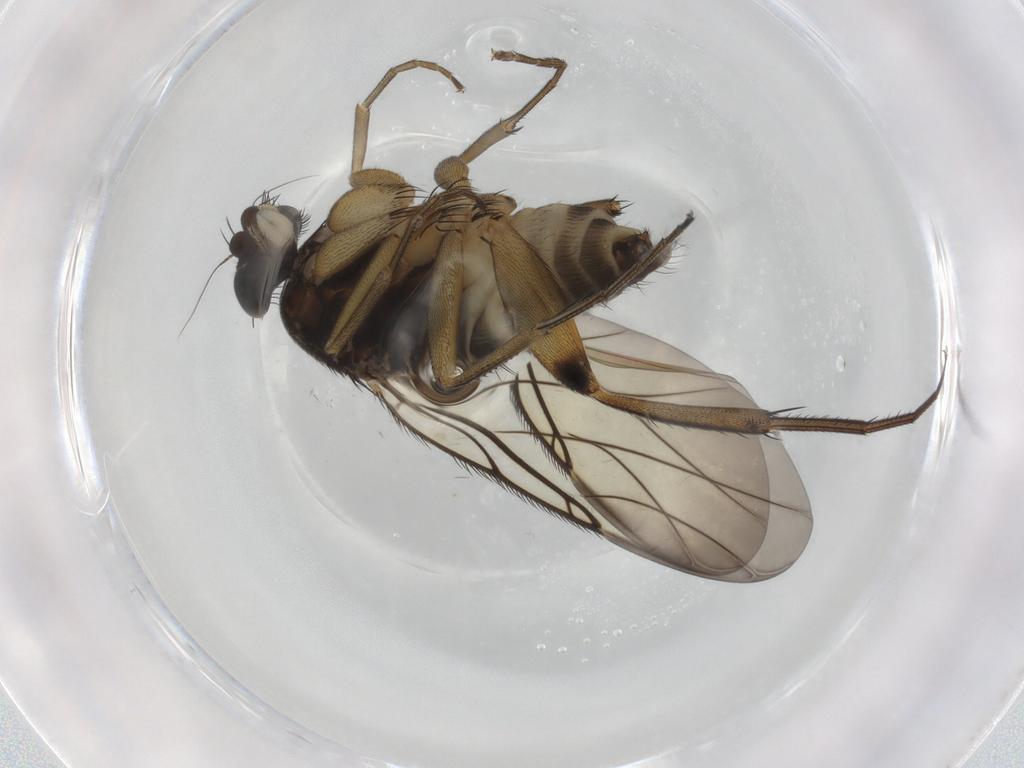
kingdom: Animalia
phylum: Arthropoda
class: Insecta
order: Diptera
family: Phoridae
